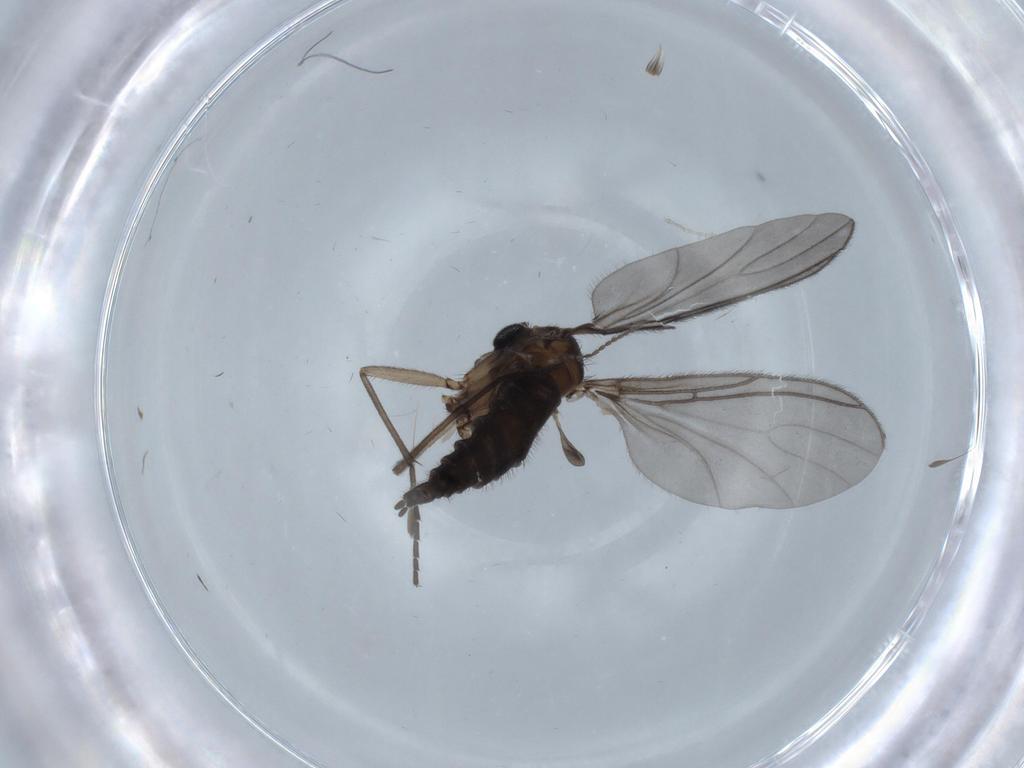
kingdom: Animalia
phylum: Arthropoda
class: Insecta
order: Diptera
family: Sciaridae
